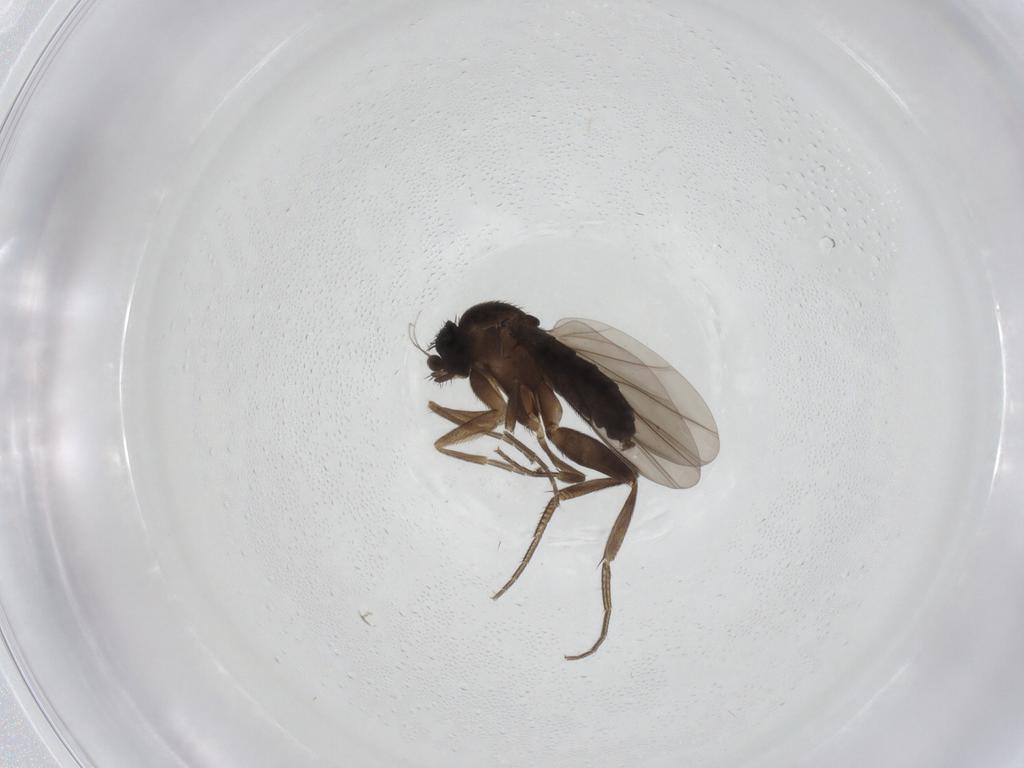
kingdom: Animalia
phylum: Arthropoda
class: Insecta
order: Diptera
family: Phoridae
